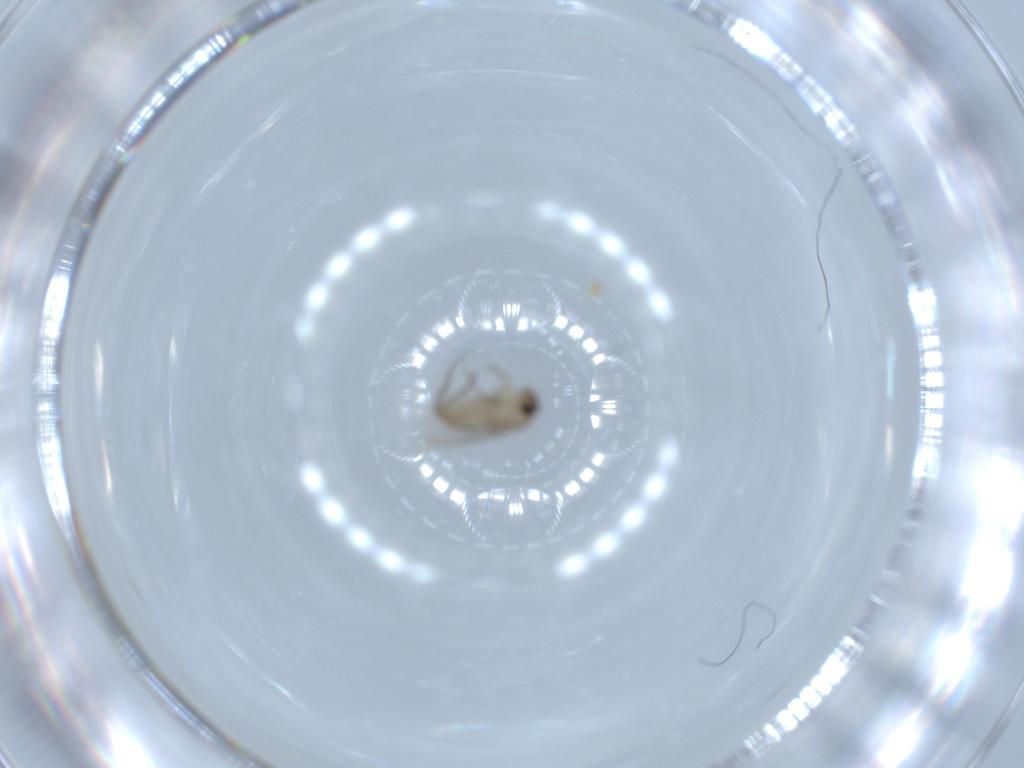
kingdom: Animalia
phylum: Arthropoda
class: Insecta
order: Diptera
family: Phoridae
